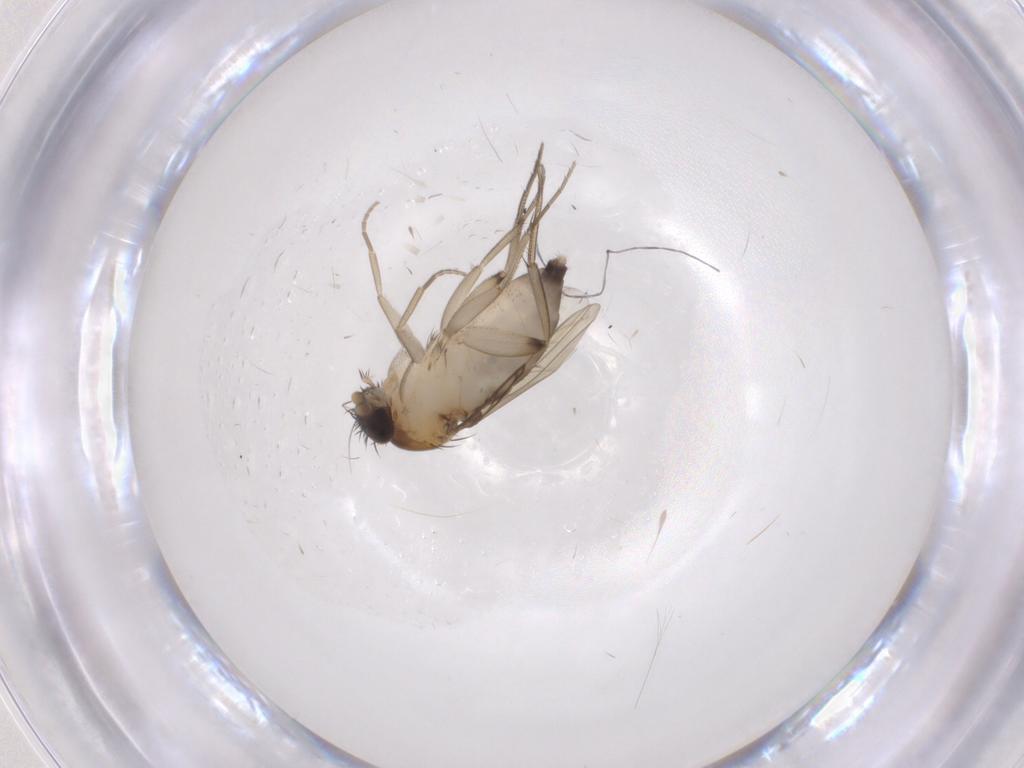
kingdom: Animalia
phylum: Arthropoda
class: Insecta
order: Diptera
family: Phoridae
